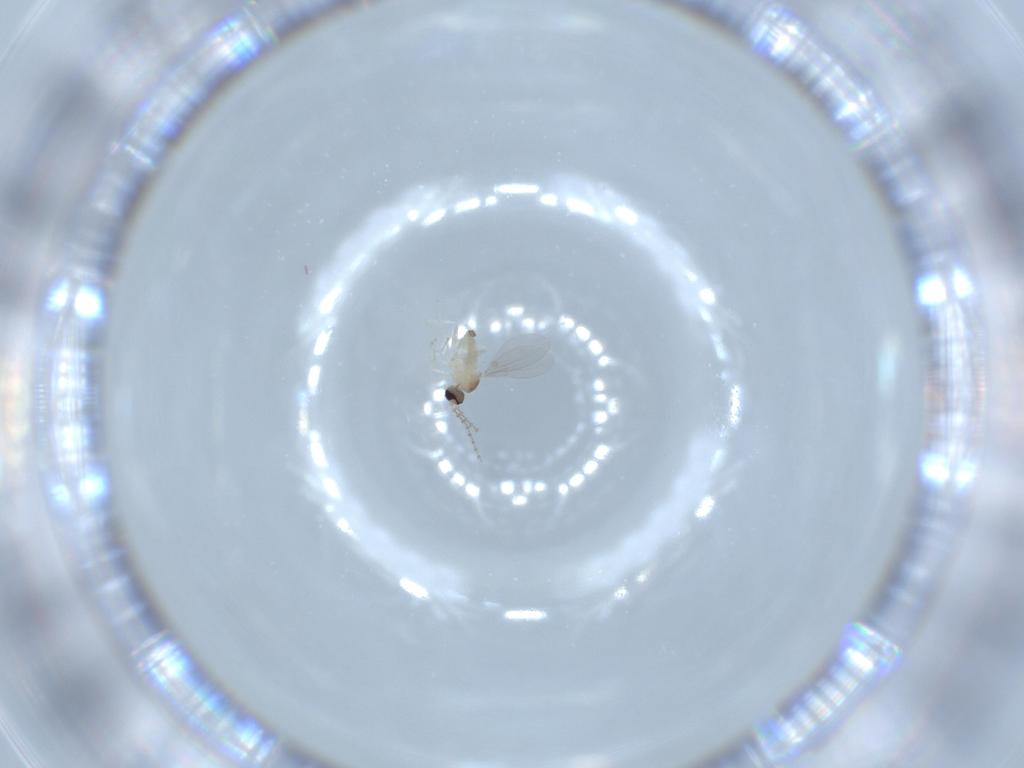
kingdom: Animalia
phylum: Arthropoda
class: Insecta
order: Diptera
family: Cecidomyiidae
